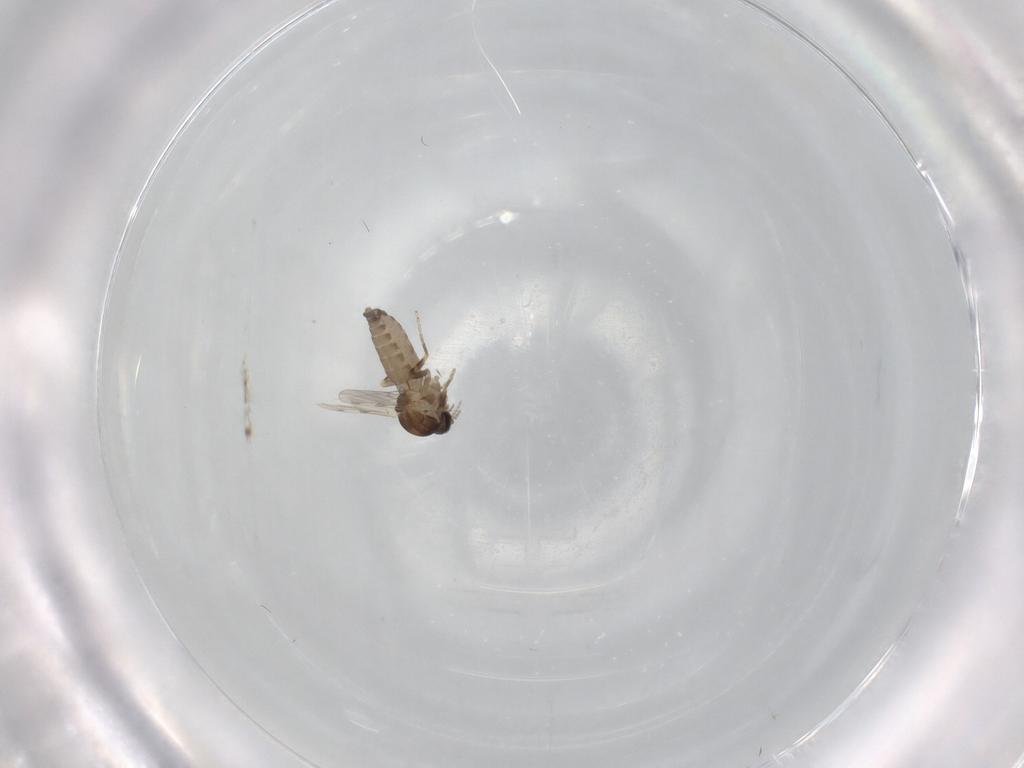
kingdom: Animalia
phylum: Arthropoda
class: Insecta
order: Diptera
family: Ceratopogonidae
